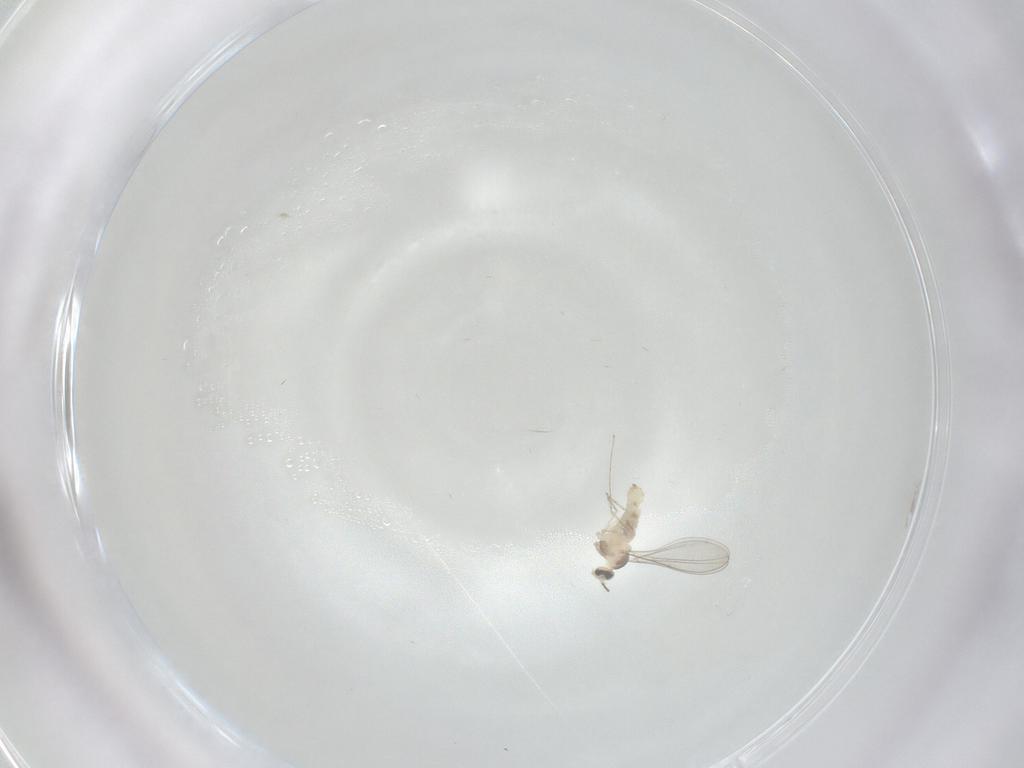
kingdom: Animalia
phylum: Arthropoda
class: Insecta
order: Diptera
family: Cecidomyiidae
